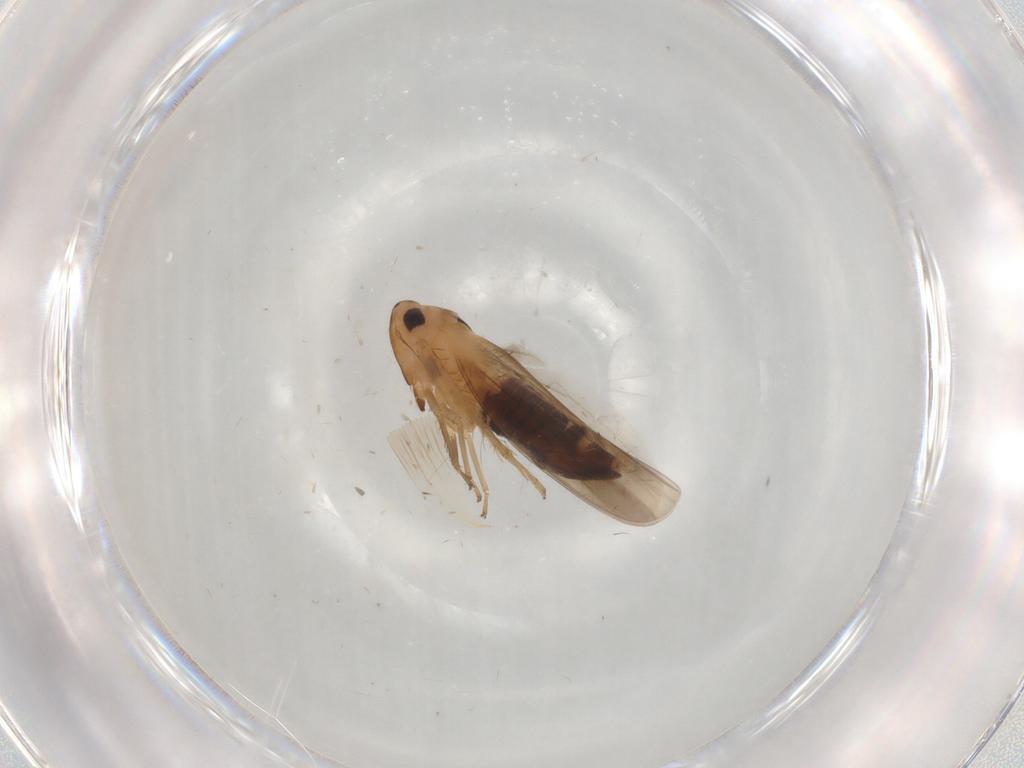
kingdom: Animalia
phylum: Arthropoda
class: Insecta
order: Hemiptera
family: Cicadellidae
